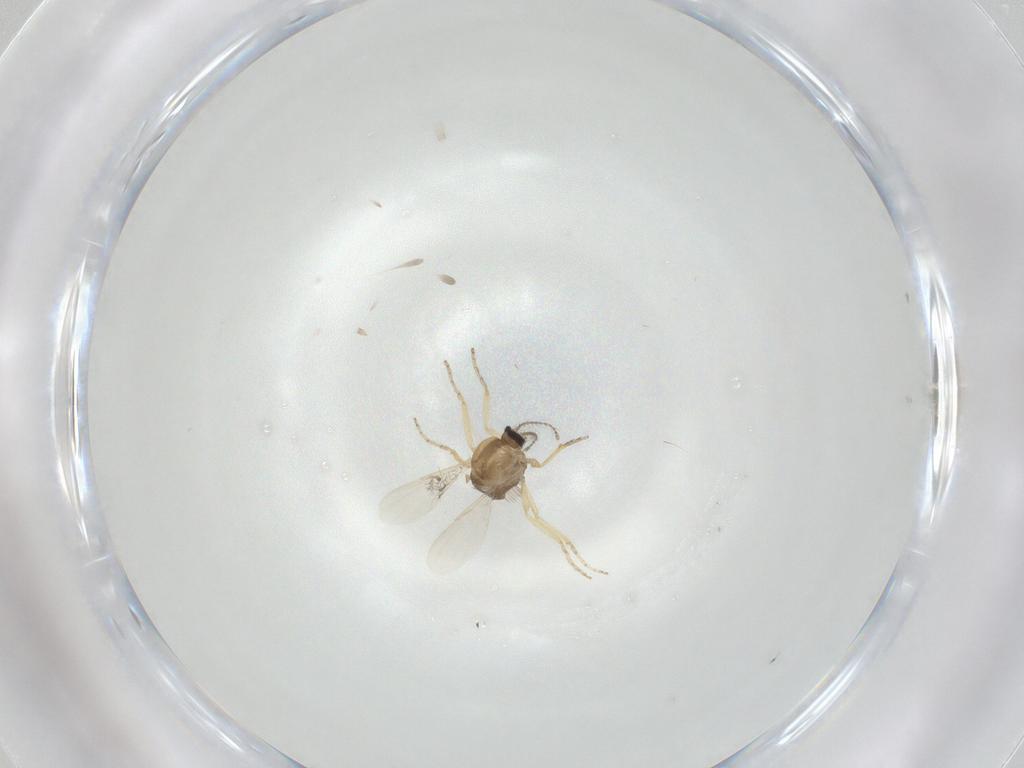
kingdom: Animalia
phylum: Arthropoda
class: Insecta
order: Diptera
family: Ceratopogonidae
